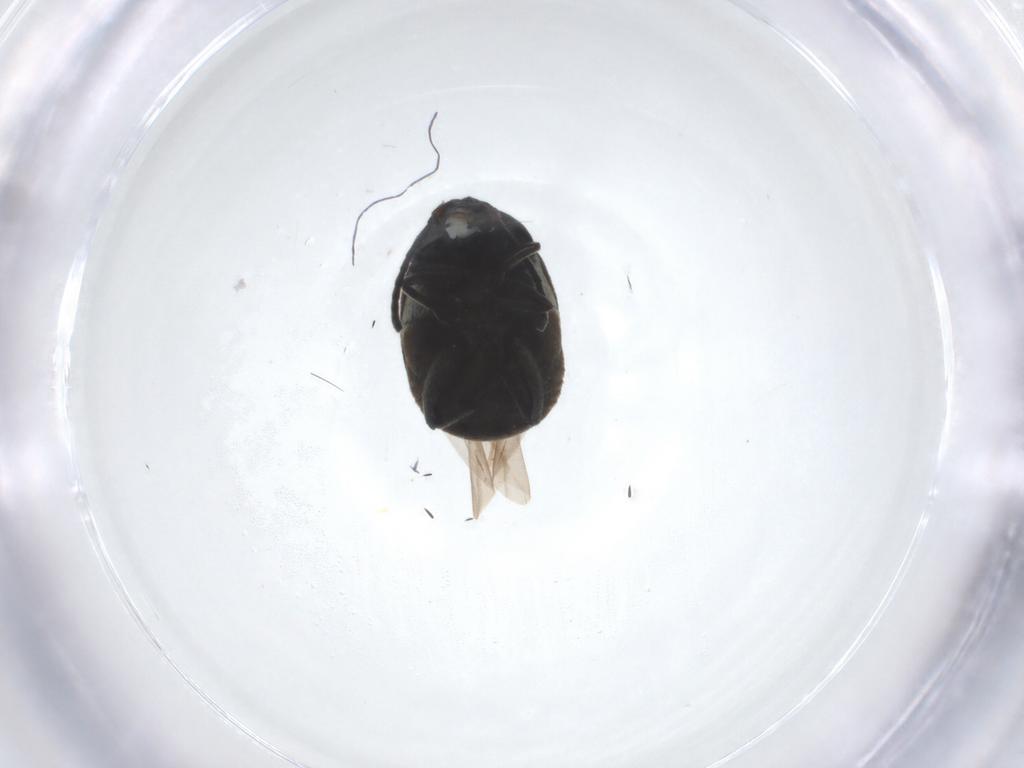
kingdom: Animalia
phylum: Arthropoda
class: Insecta
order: Coleoptera
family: Chrysomelidae
